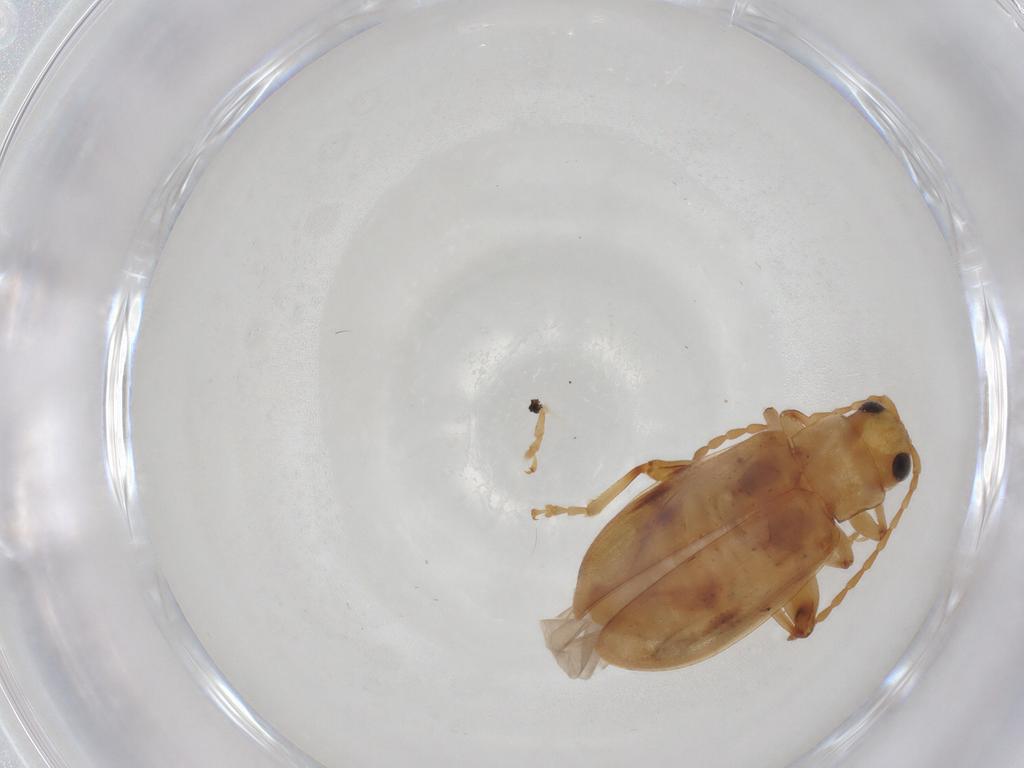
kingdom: Animalia
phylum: Arthropoda
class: Insecta
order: Coleoptera
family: Chrysomelidae
